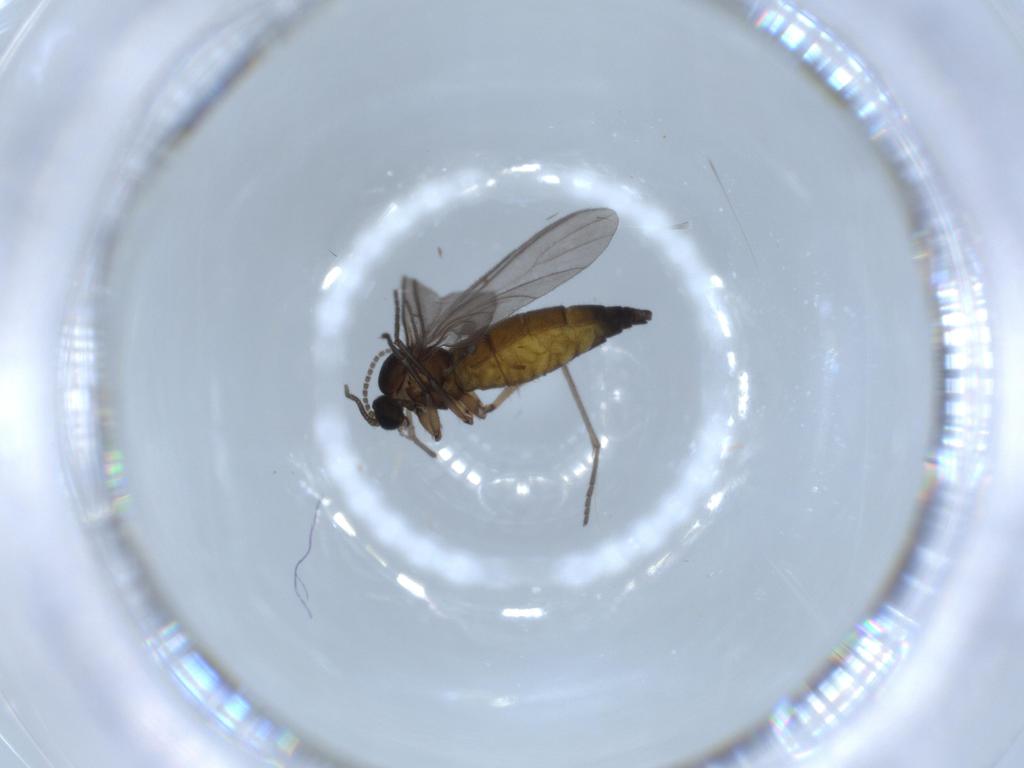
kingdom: Animalia
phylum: Arthropoda
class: Insecta
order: Diptera
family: Sciaridae
